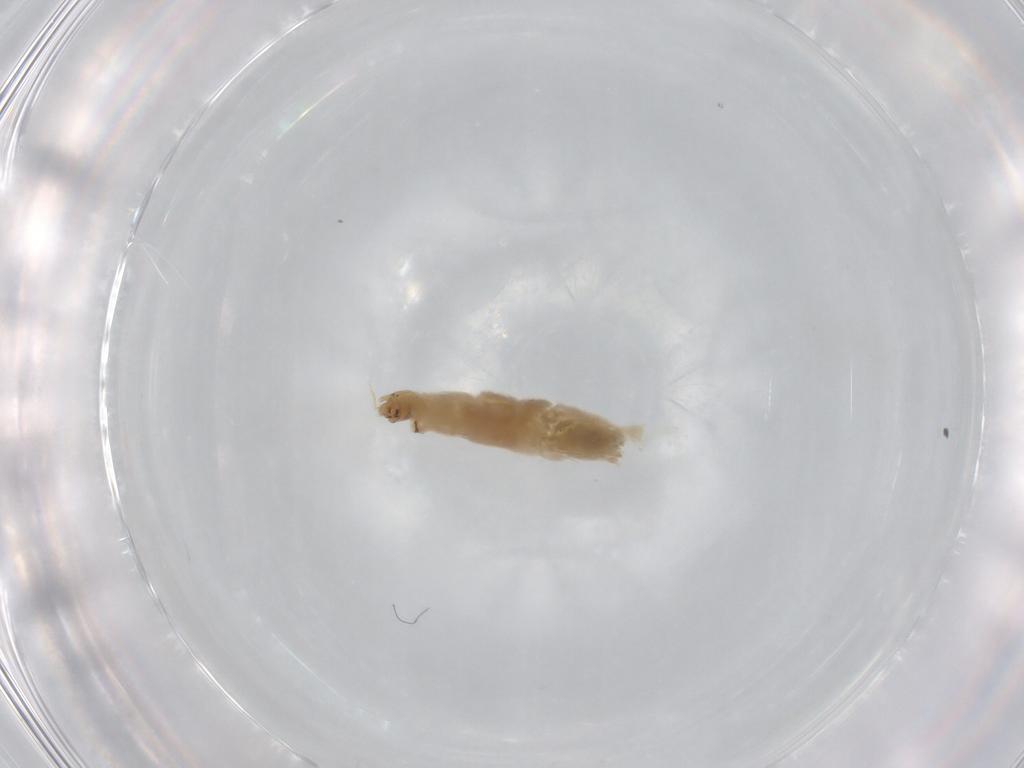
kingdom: Animalia
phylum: Arthropoda
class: Insecta
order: Diptera
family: Chironomidae
